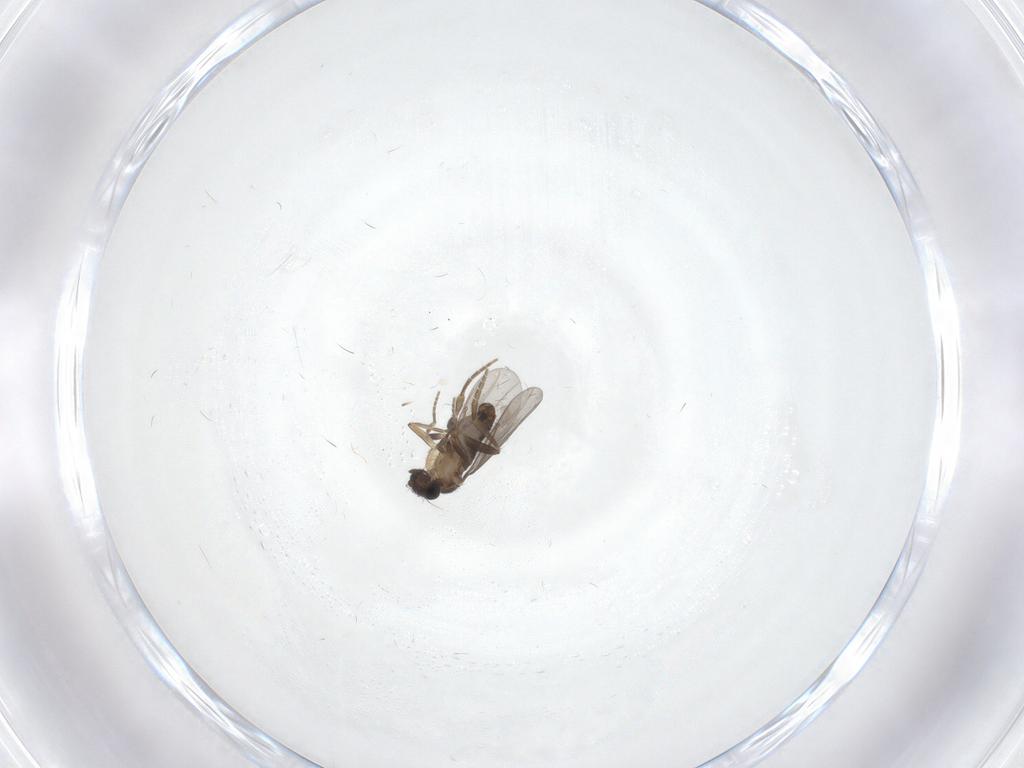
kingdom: Animalia
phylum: Arthropoda
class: Insecta
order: Diptera
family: Chironomidae
